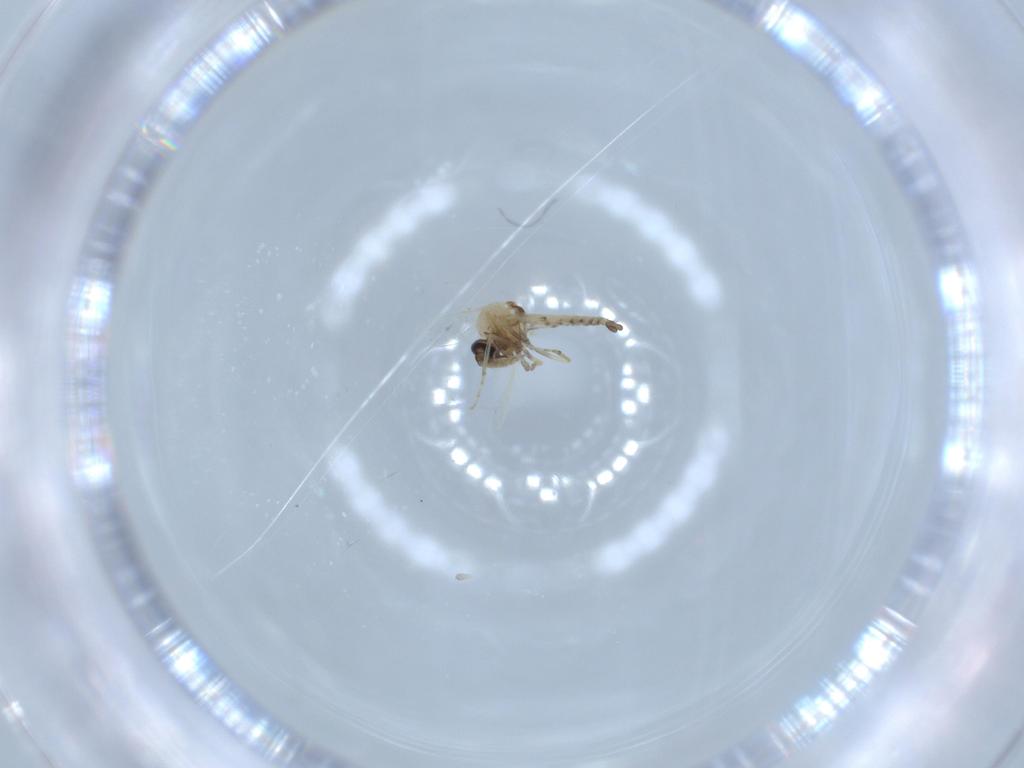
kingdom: Animalia
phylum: Arthropoda
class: Insecta
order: Diptera
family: Ceratopogonidae
